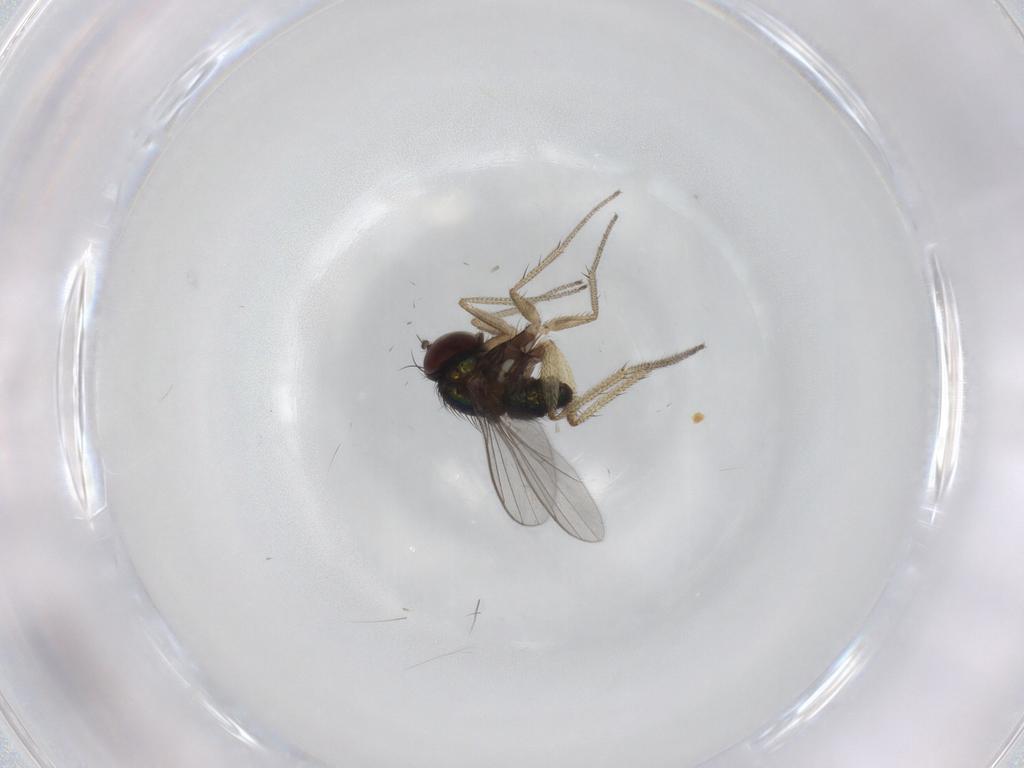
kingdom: Animalia
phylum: Arthropoda
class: Insecta
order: Diptera
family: Dolichopodidae
